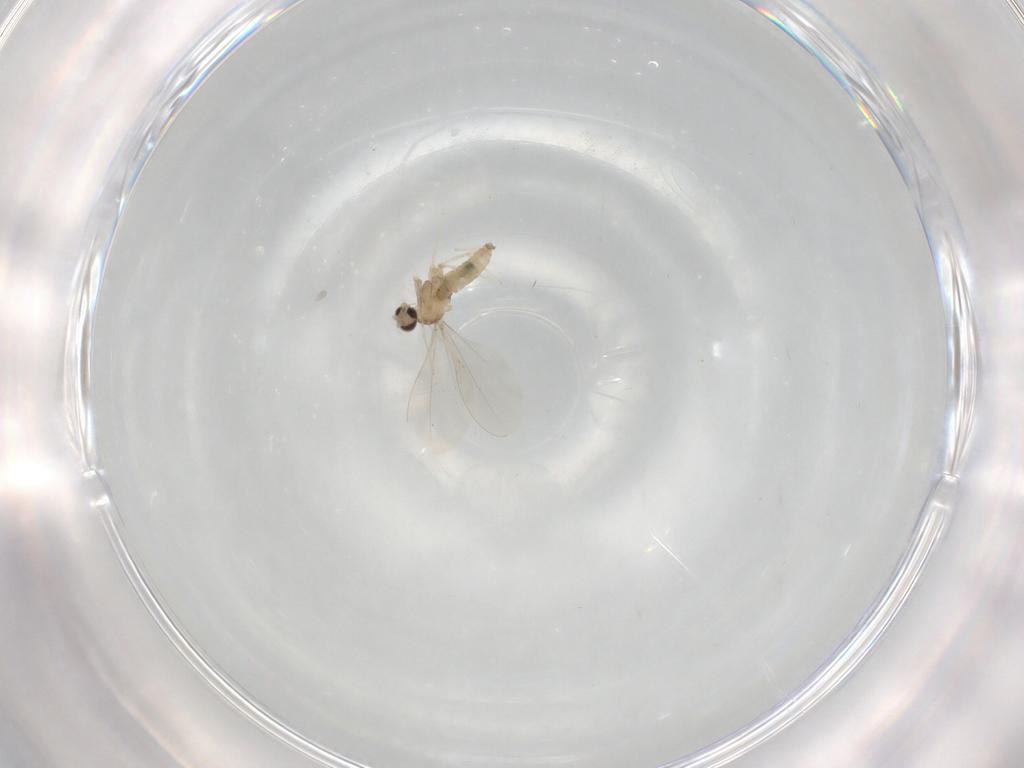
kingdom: Animalia
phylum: Arthropoda
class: Insecta
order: Diptera
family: Cecidomyiidae
